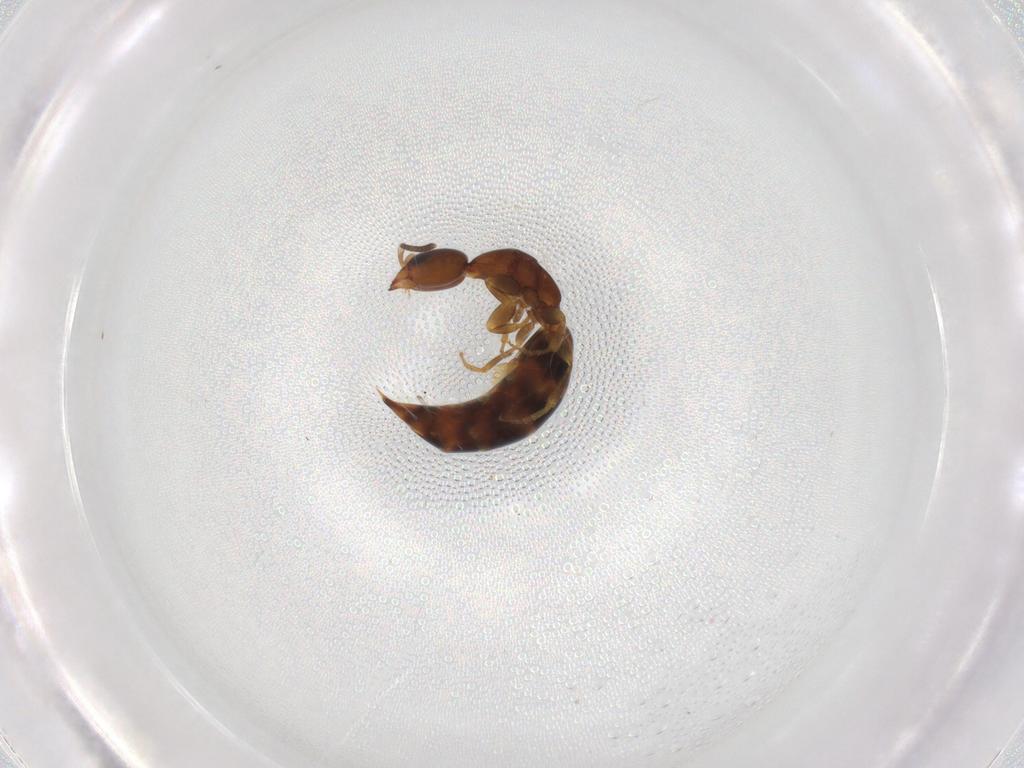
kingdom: Animalia
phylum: Arthropoda
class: Insecta
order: Hymenoptera
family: Bethylidae
